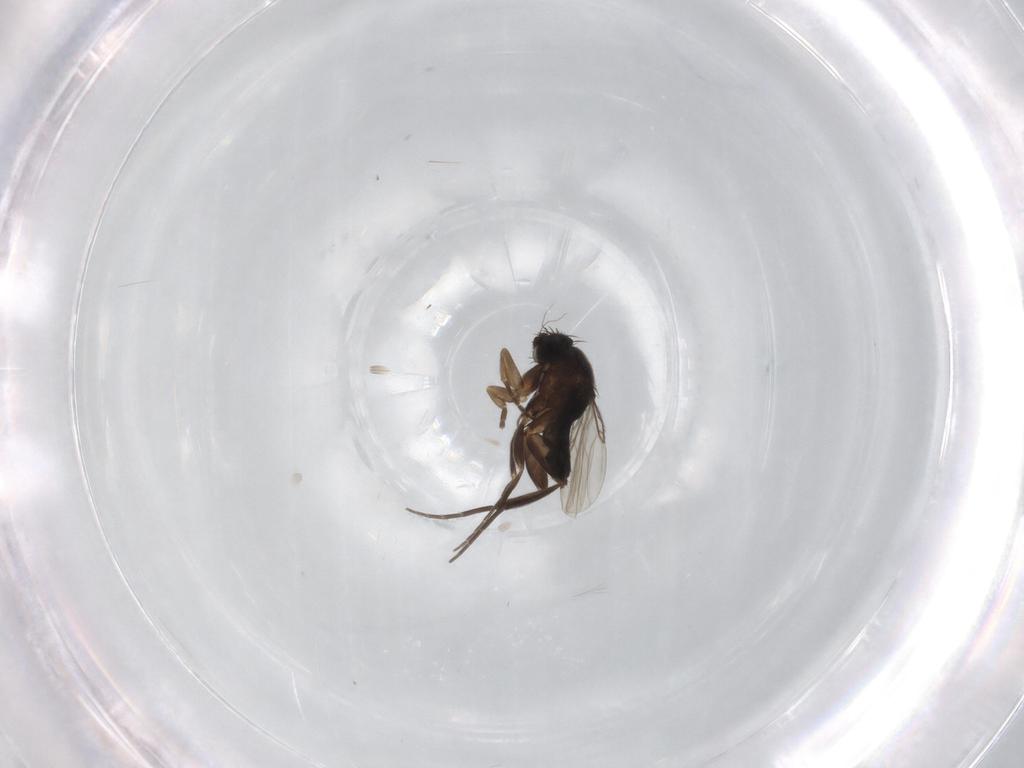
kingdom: Animalia
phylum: Arthropoda
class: Insecta
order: Diptera
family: Phoridae
